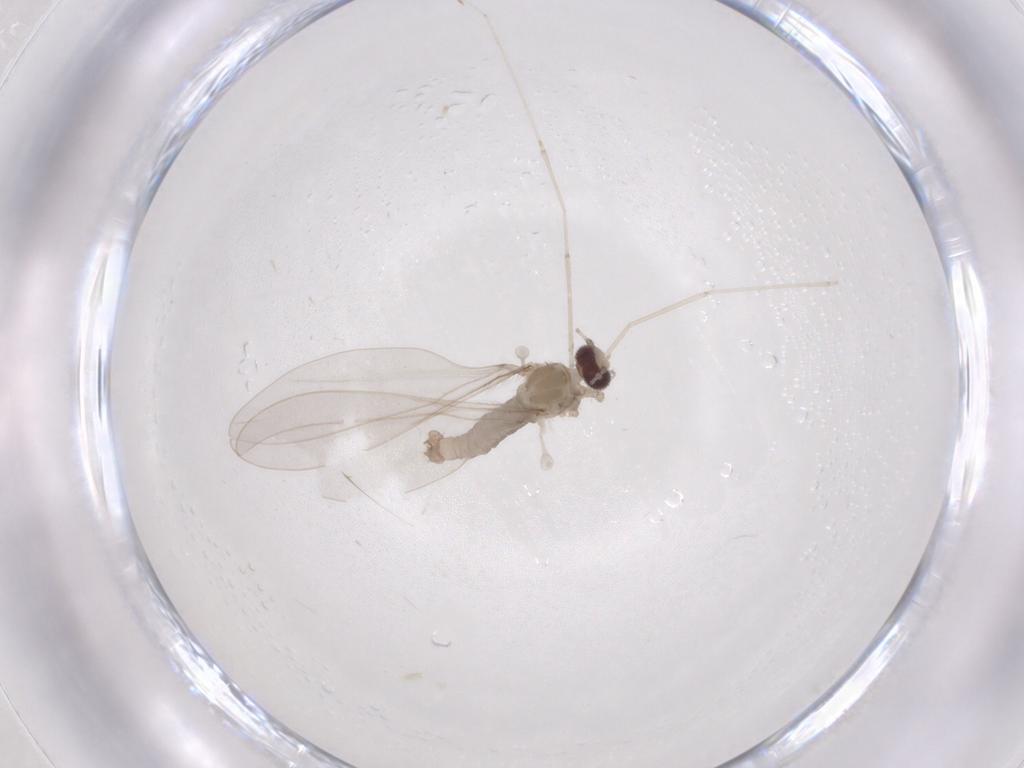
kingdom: Animalia
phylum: Arthropoda
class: Insecta
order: Diptera
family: Cecidomyiidae
